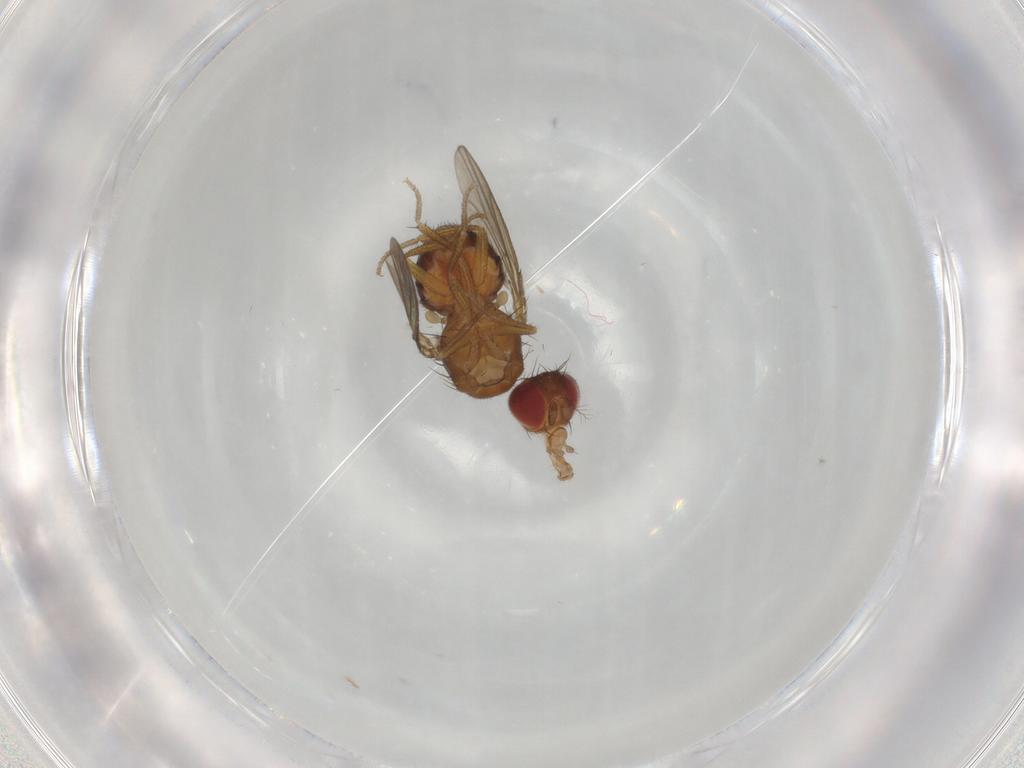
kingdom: Animalia
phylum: Arthropoda
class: Insecta
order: Diptera
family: Drosophilidae
